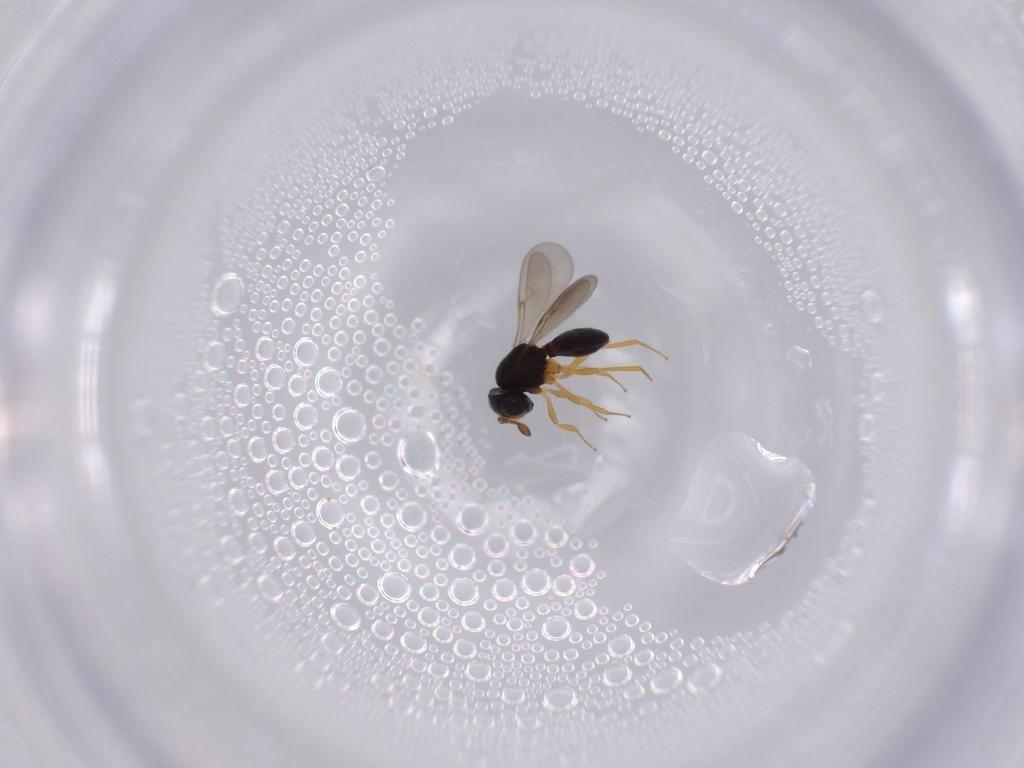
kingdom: Animalia
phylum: Arthropoda
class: Insecta
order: Hymenoptera
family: Scelionidae
